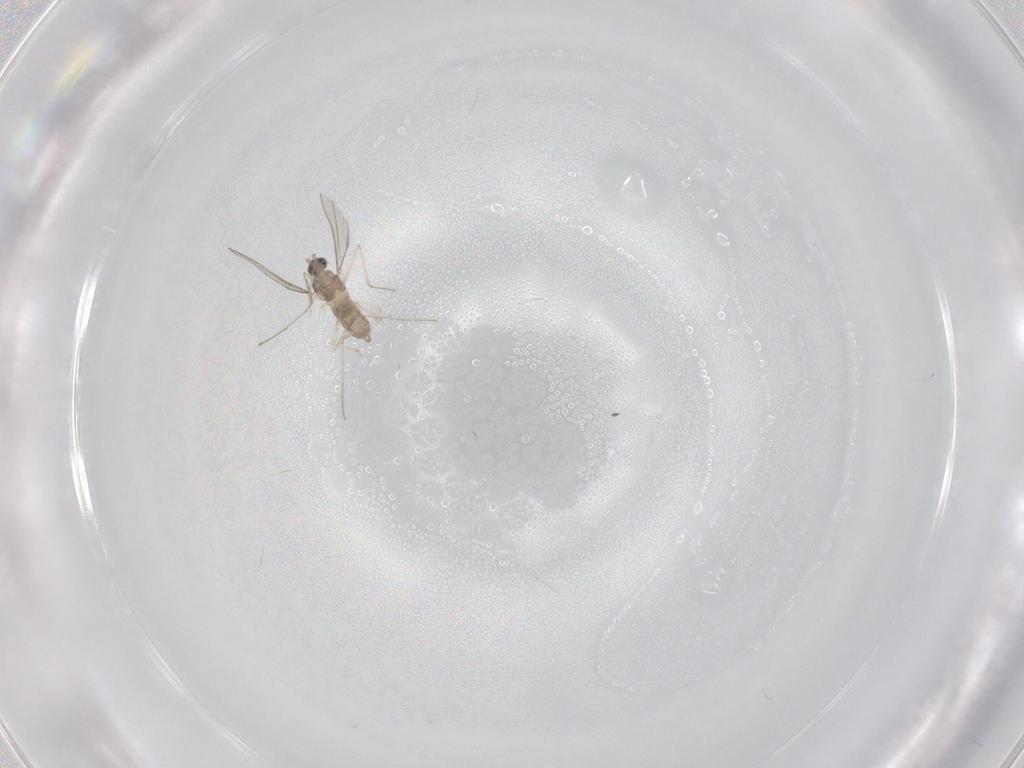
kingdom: Animalia
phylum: Arthropoda
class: Insecta
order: Diptera
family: Cecidomyiidae
